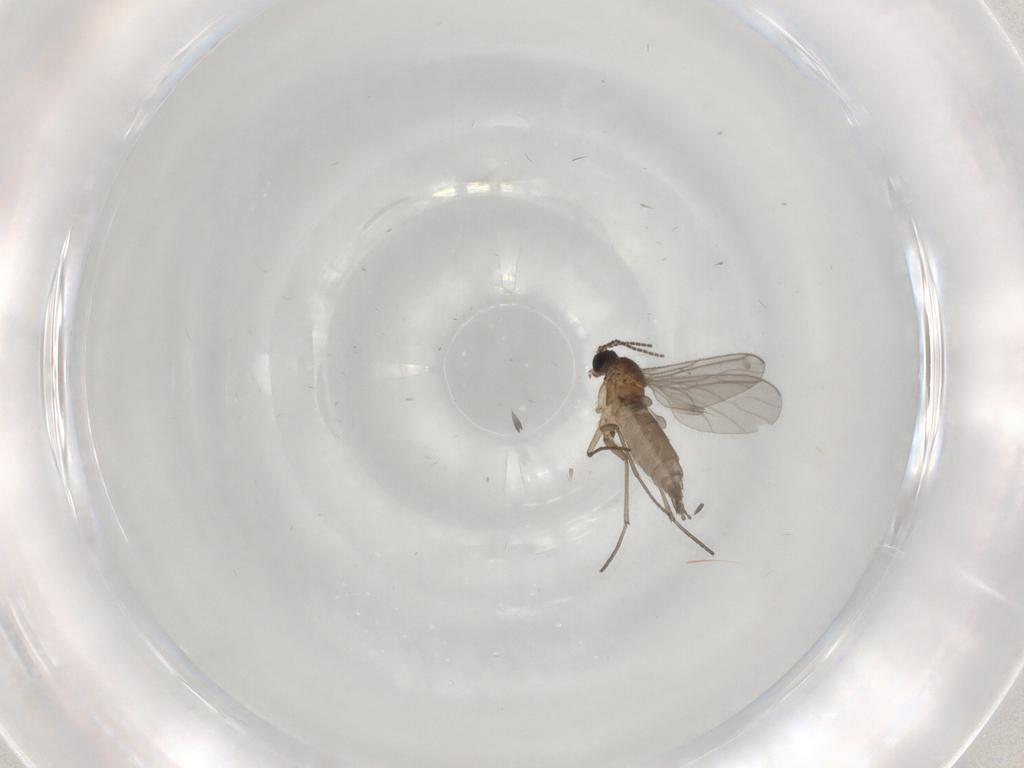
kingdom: Animalia
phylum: Arthropoda
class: Insecta
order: Diptera
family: Sciaridae
